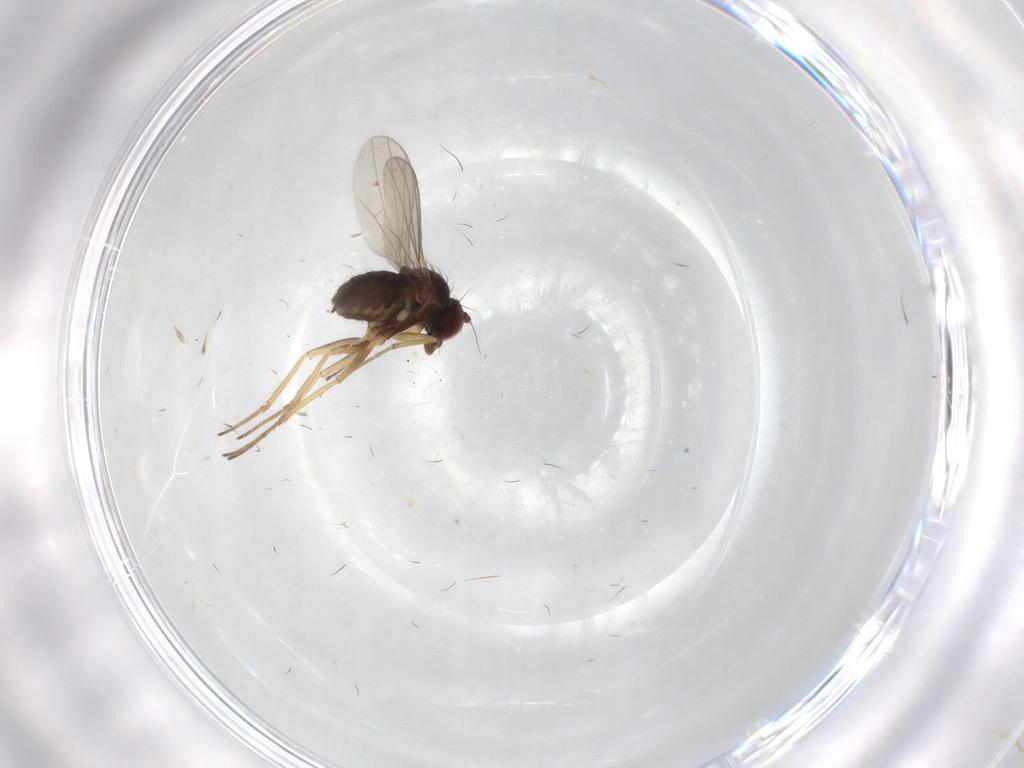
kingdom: Animalia
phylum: Arthropoda
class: Insecta
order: Diptera
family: Dolichopodidae
